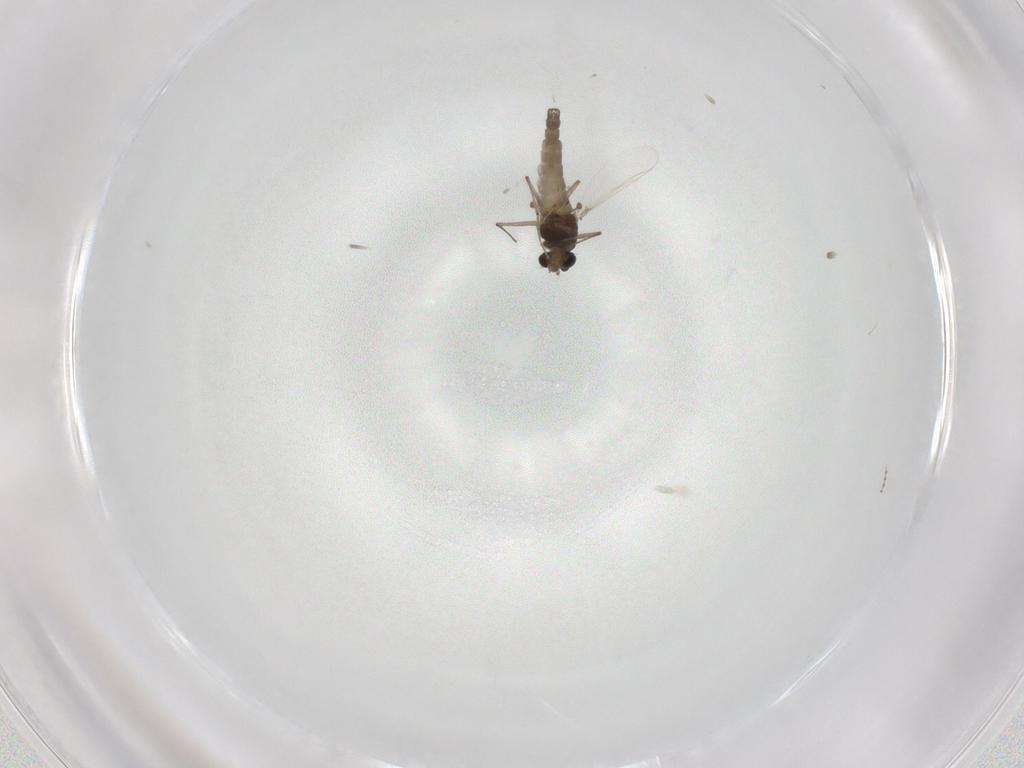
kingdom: Animalia
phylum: Arthropoda
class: Insecta
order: Diptera
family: Chironomidae
